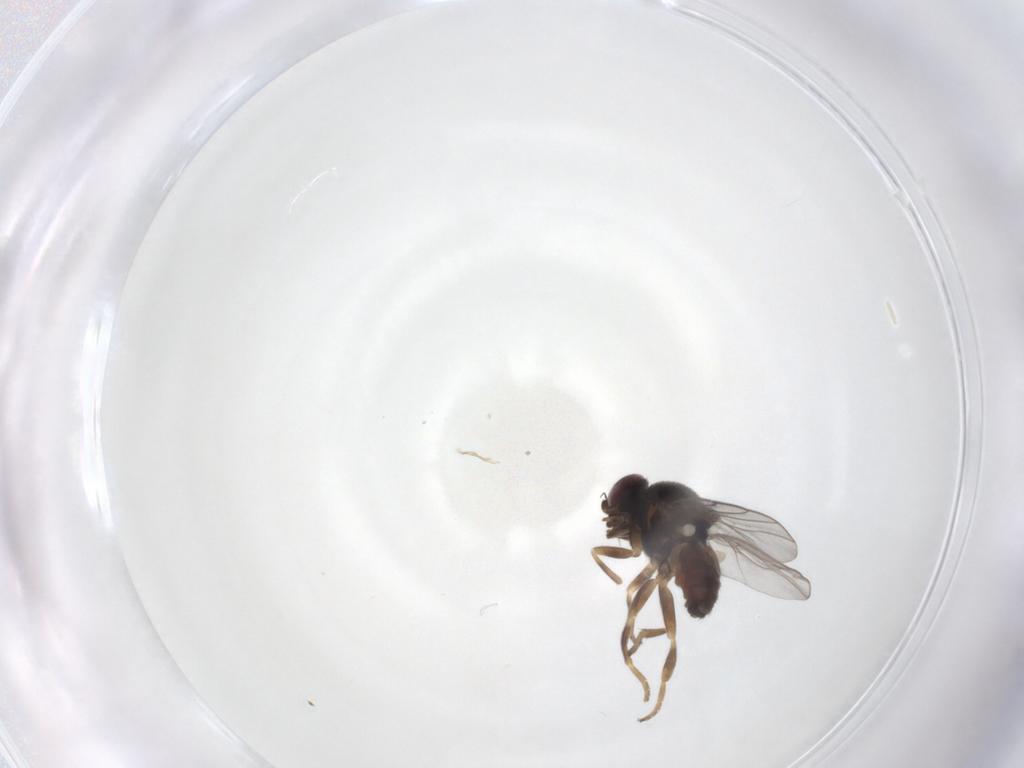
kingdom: Animalia
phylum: Arthropoda
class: Insecta
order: Diptera
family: Chloropidae
